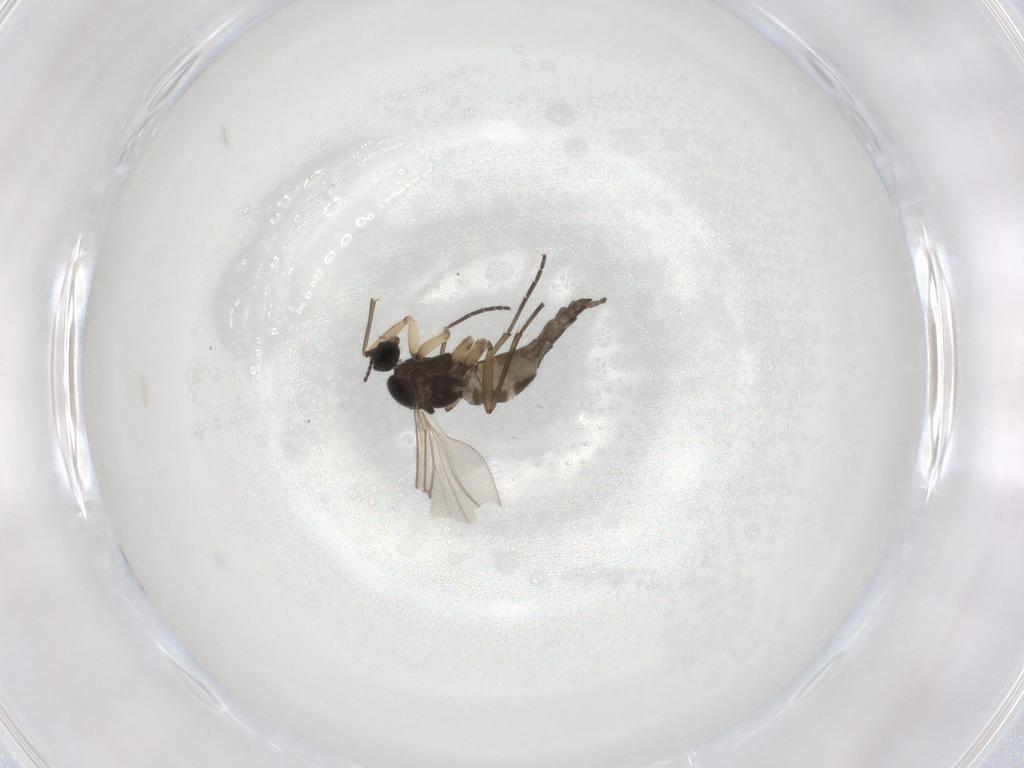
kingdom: Animalia
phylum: Arthropoda
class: Insecta
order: Diptera
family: Sciaridae
